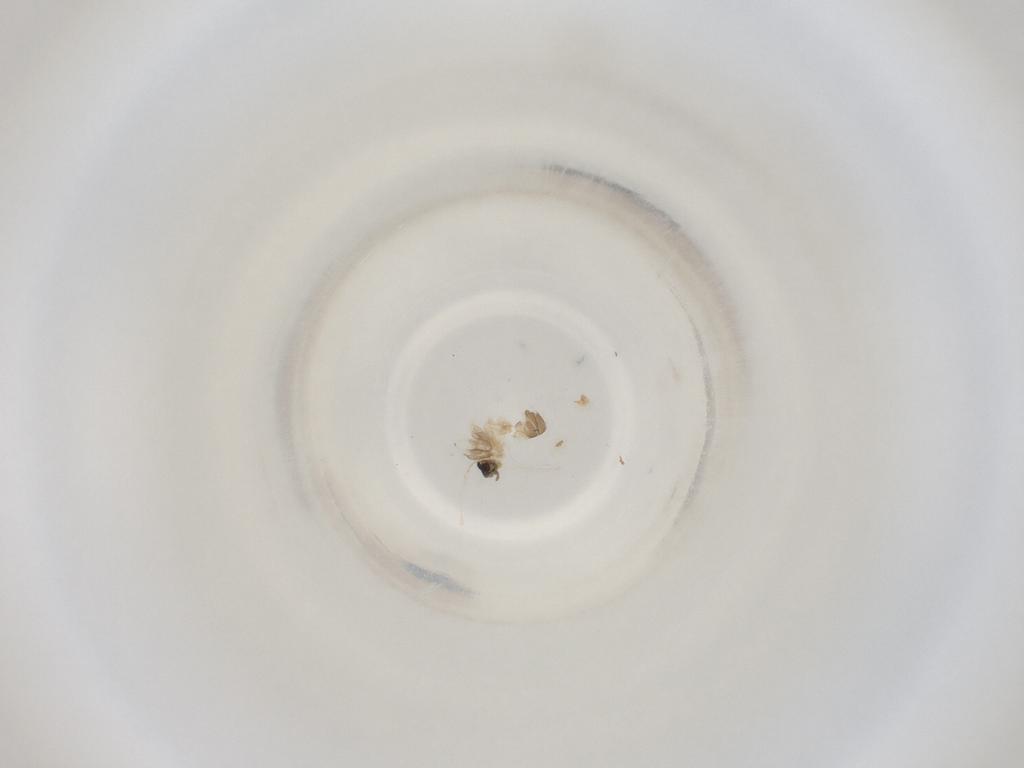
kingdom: Animalia
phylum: Arthropoda
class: Insecta
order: Diptera
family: Cecidomyiidae
